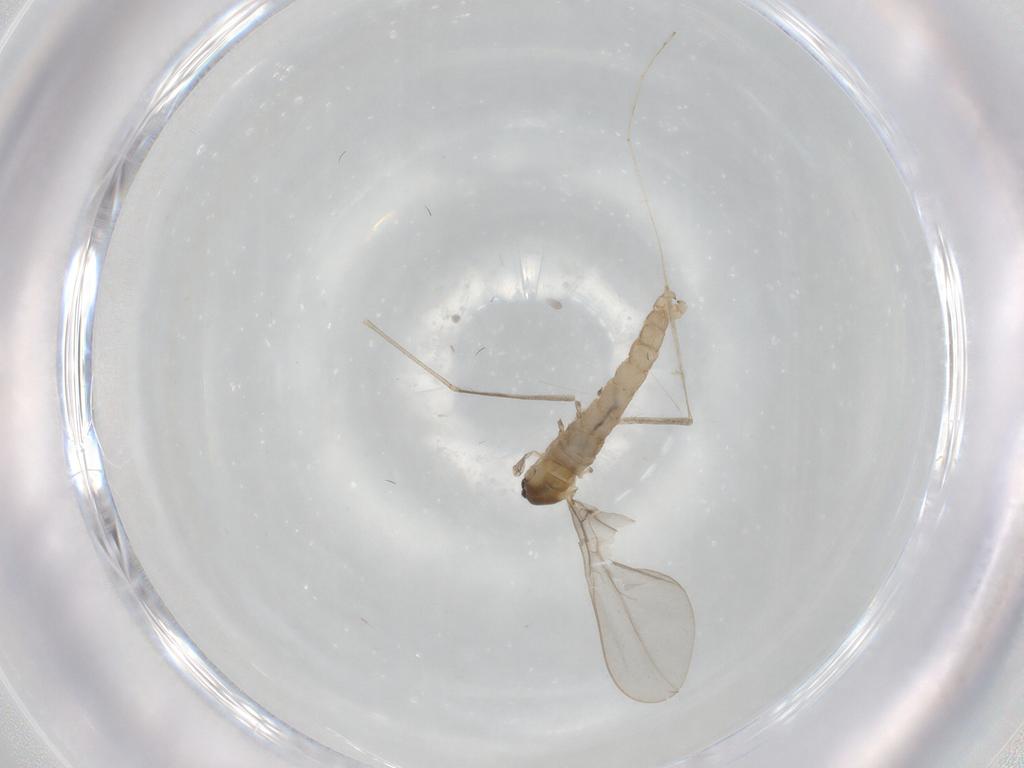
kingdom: Animalia
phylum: Arthropoda
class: Insecta
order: Diptera
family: Cecidomyiidae
